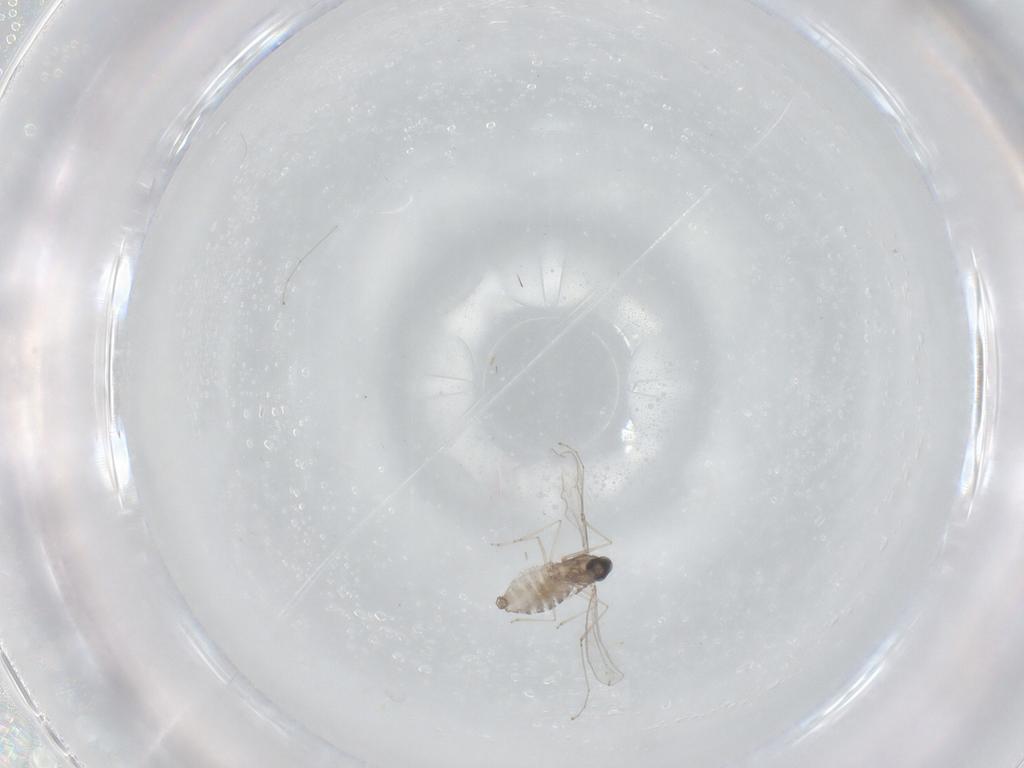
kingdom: Animalia
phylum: Arthropoda
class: Insecta
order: Diptera
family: Cecidomyiidae
